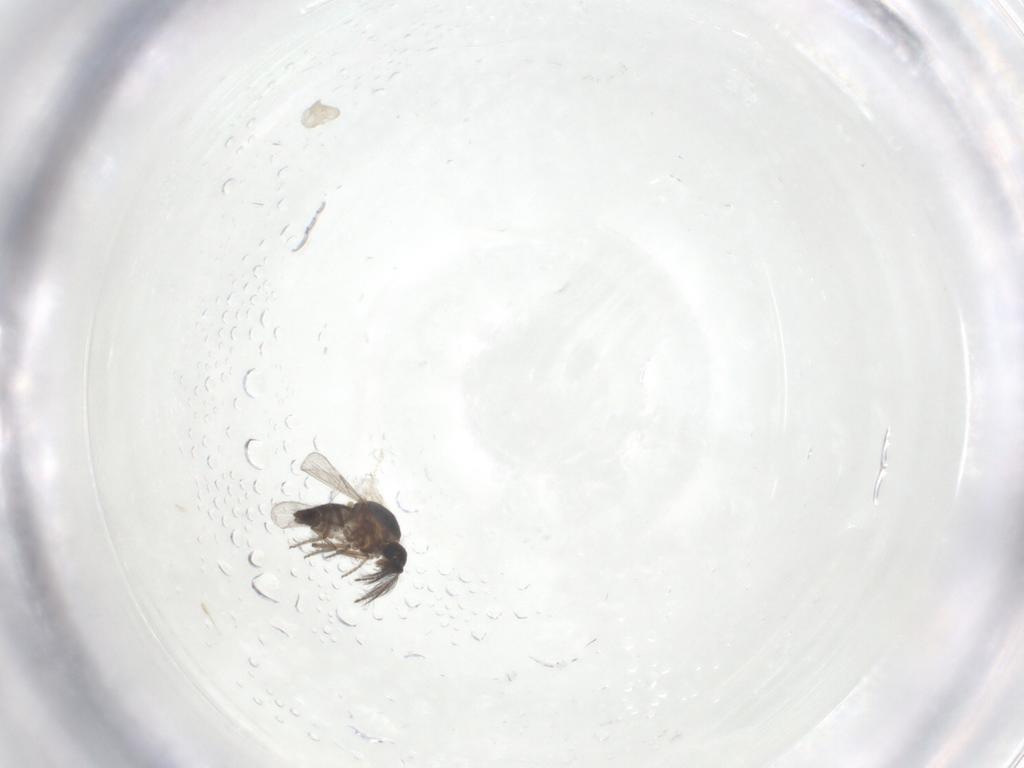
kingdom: Animalia
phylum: Arthropoda
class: Insecta
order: Diptera
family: Ceratopogonidae
